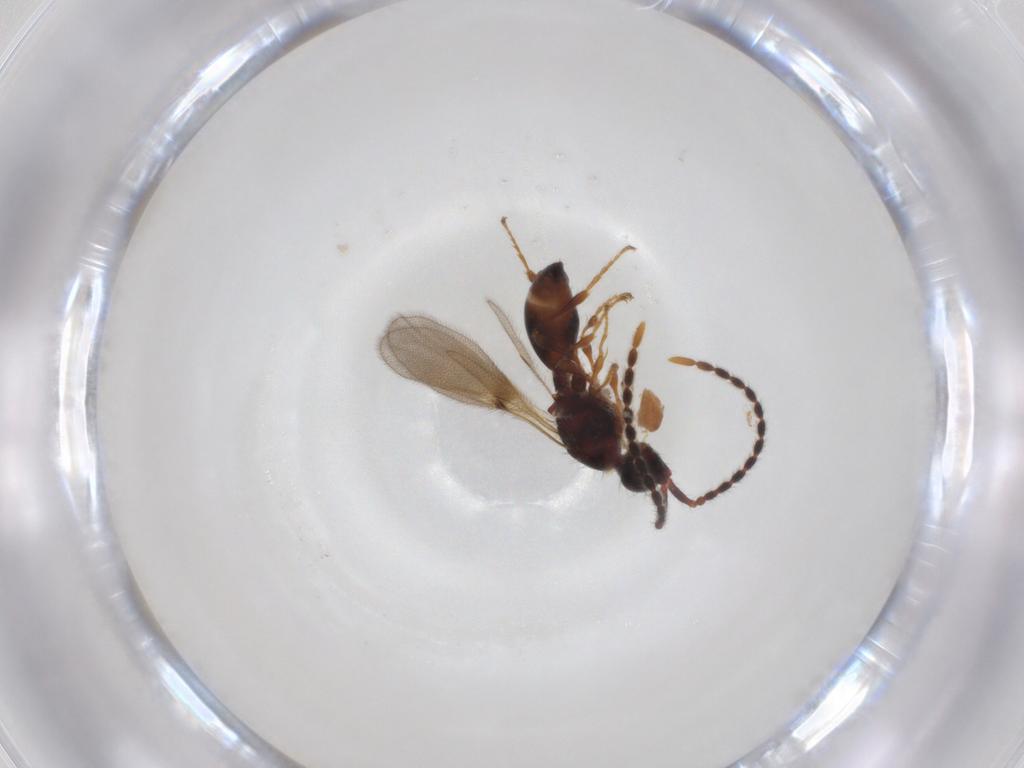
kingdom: Animalia
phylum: Arthropoda
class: Insecta
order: Hymenoptera
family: Diapriidae
